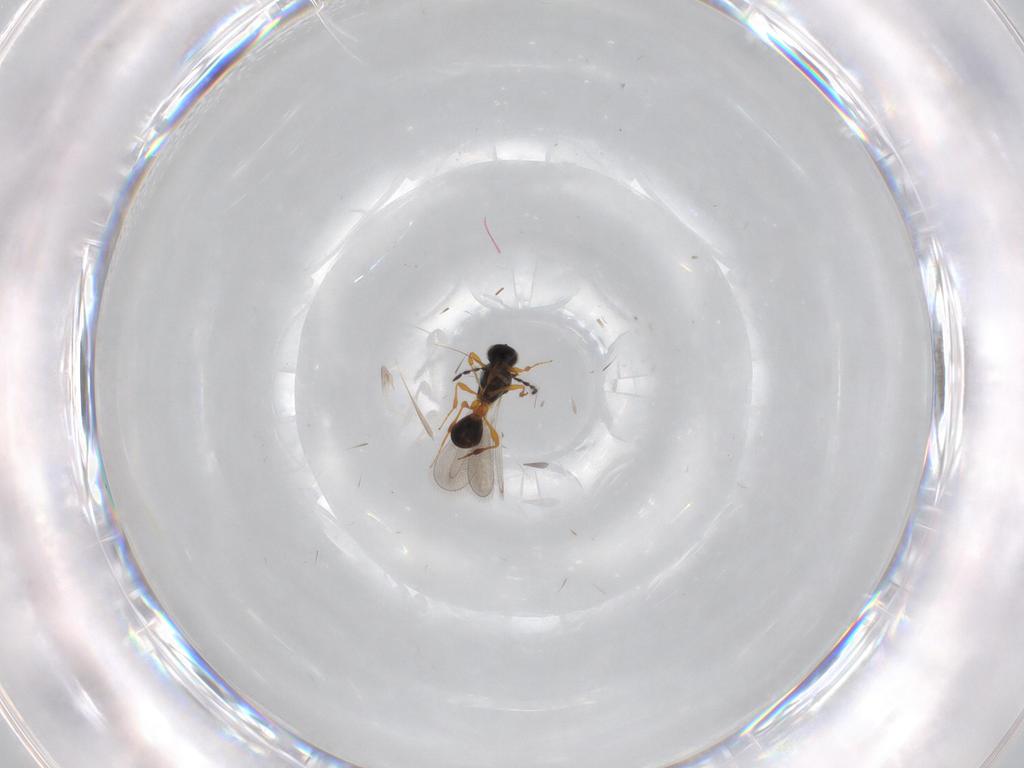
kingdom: Animalia
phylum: Arthropoda
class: Insecta
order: Hymenoptera
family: Platygastridae
